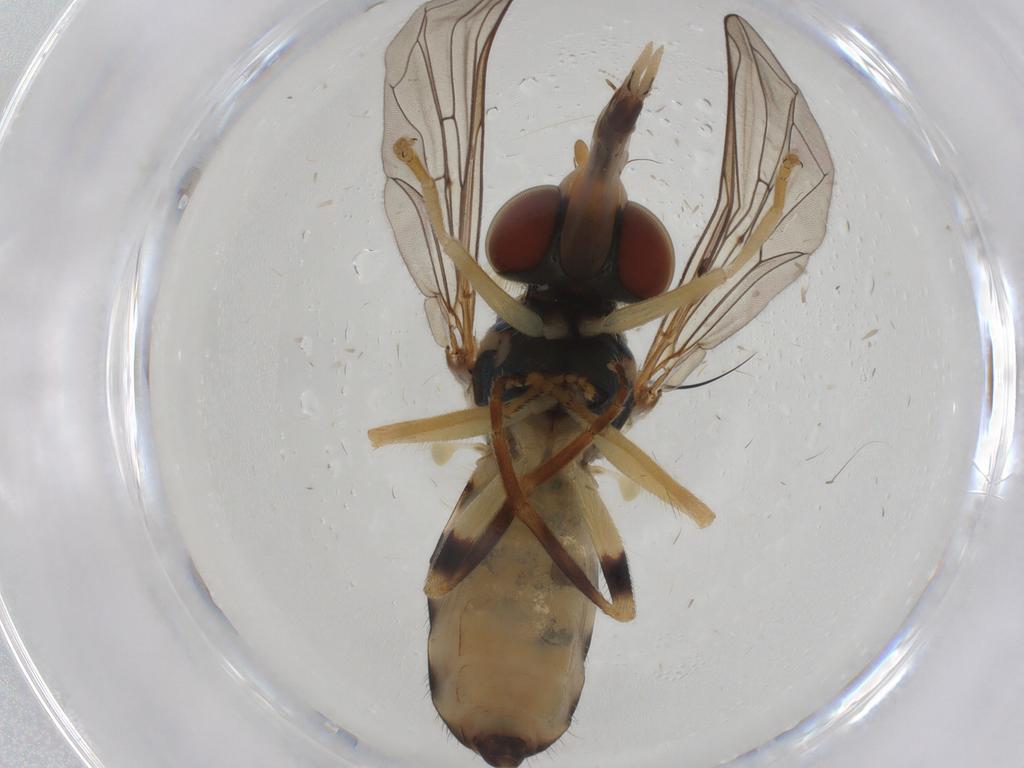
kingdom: Animalia
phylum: Arthropoda
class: Insecta
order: Diptera
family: Syrphidae
